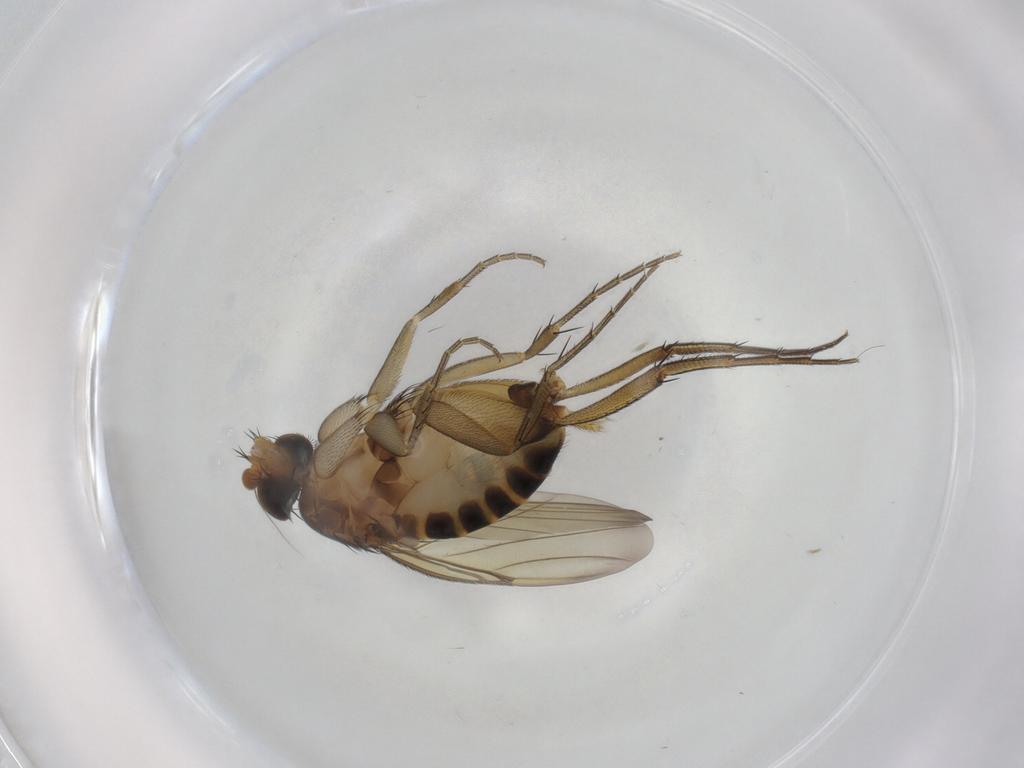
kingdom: Animalia
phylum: Arthropoda
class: Insecta
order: Diptera
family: Phoridae
